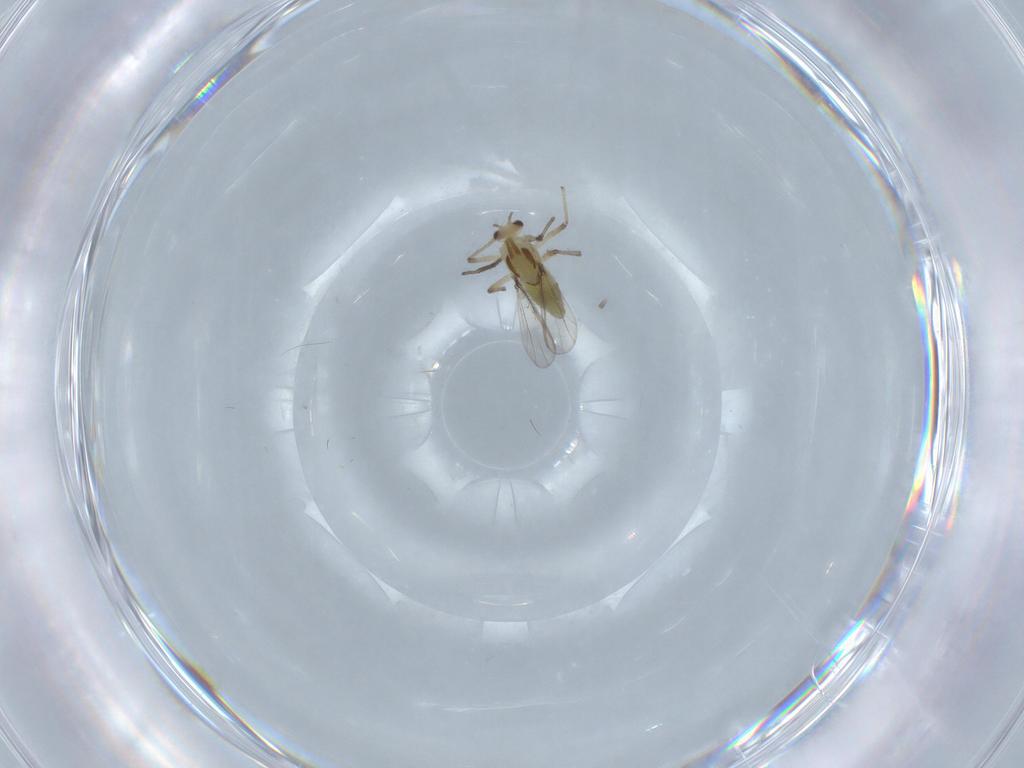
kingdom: Animalia
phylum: Arthropoda
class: Insecta
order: Diptera
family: Chironomidae
